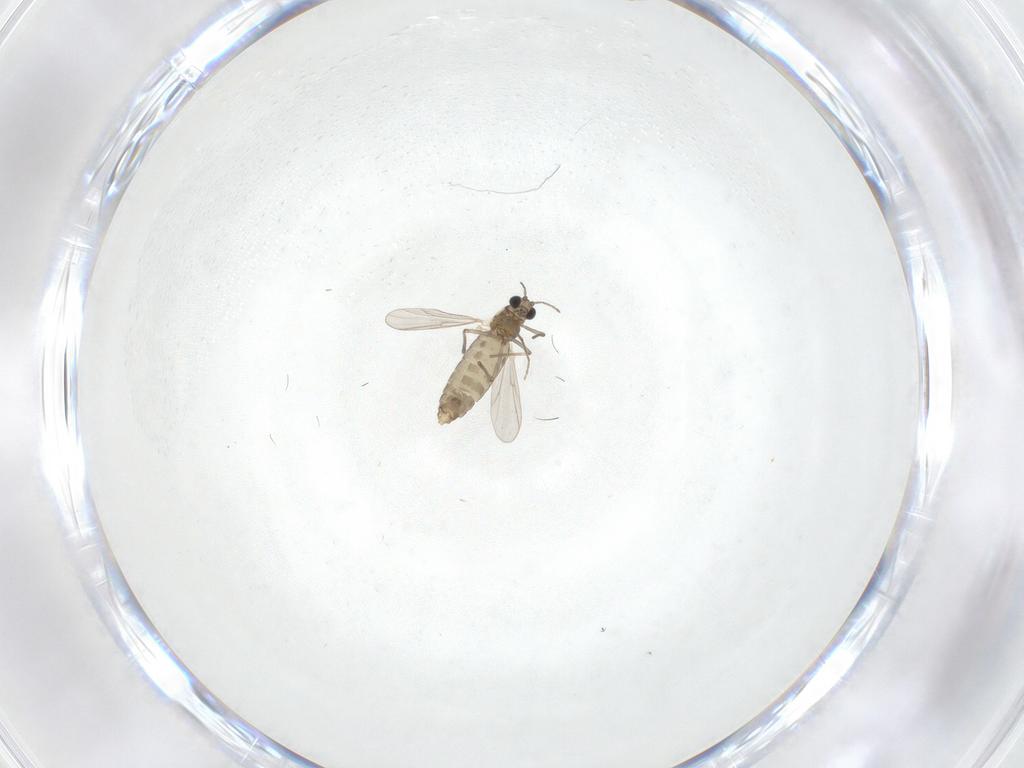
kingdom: Animalia
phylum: Arthropoda
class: Insecta
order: Diptera
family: Chironomidae
